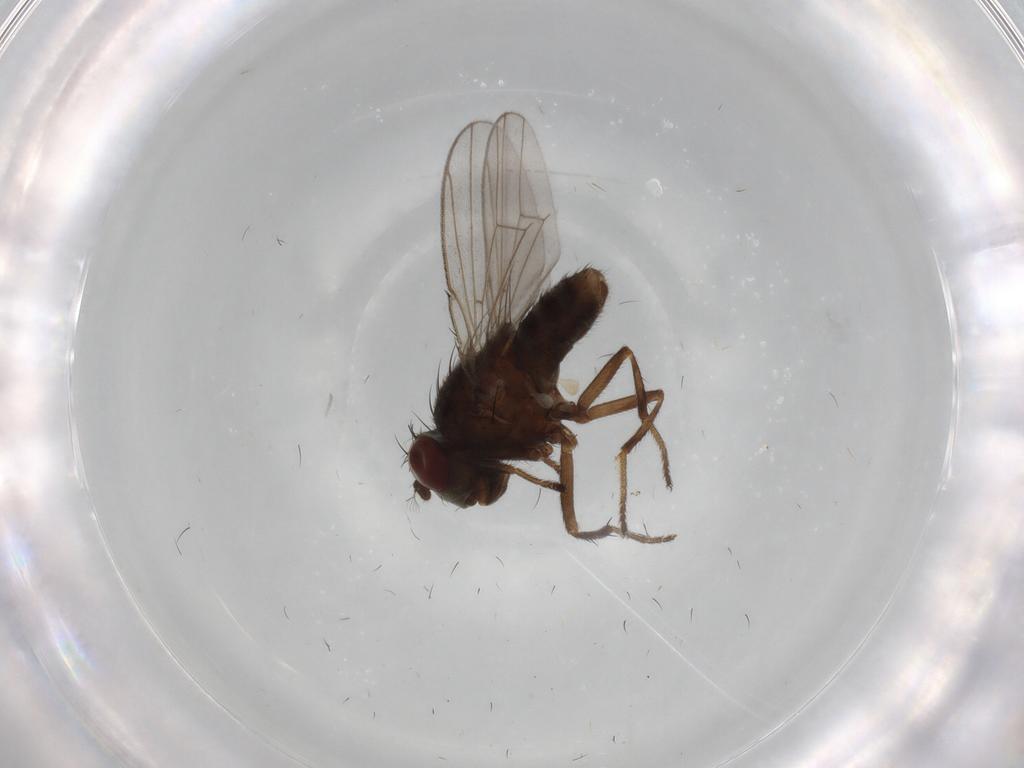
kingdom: Animalia
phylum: Arthropoda
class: Insecta
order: Diptera
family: Ephydridae
